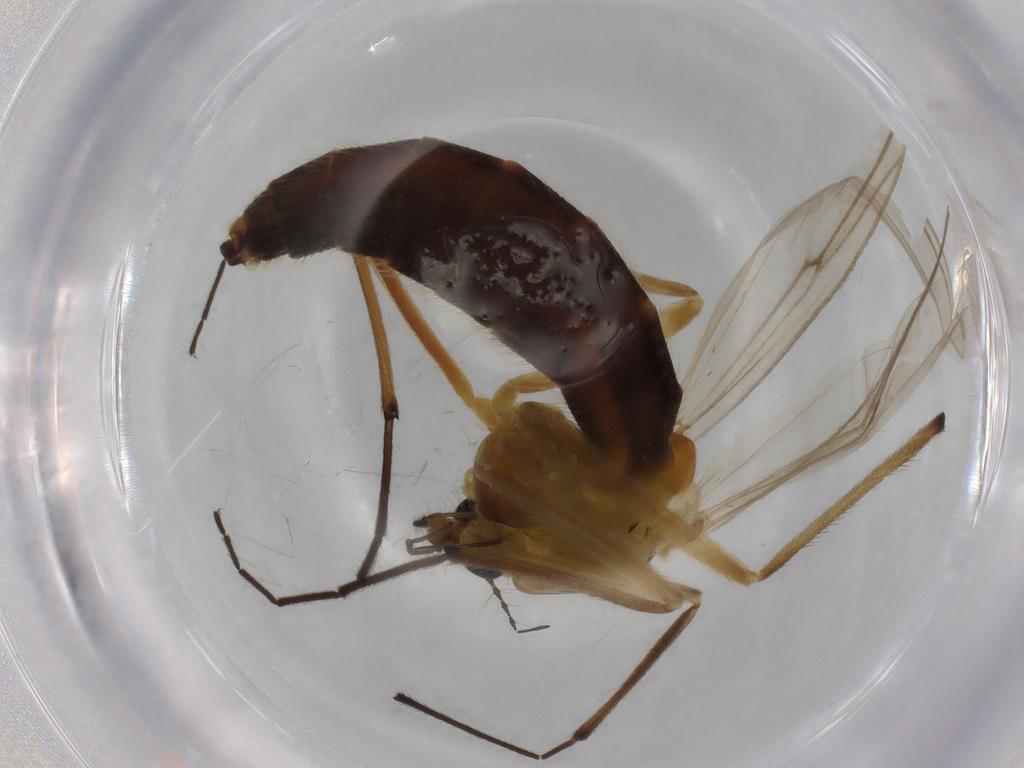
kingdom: Animalia
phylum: Arthropoda
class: Insecta
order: Diptera
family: Chironomidae
